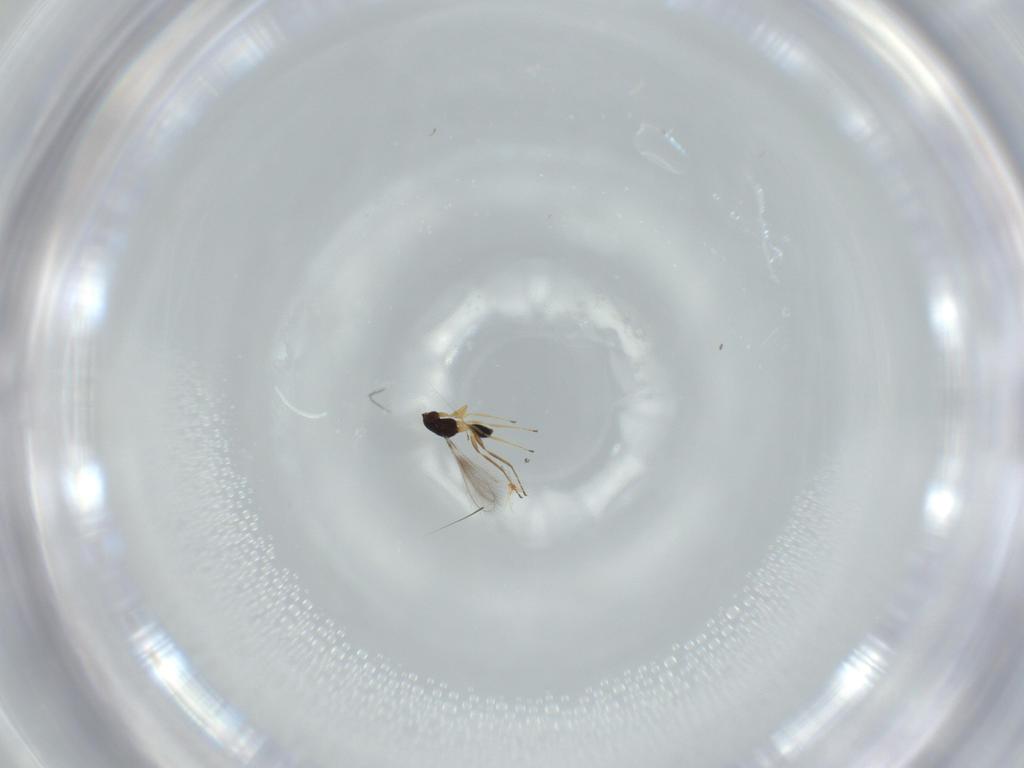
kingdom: Animalia
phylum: Arthropoda
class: Insecta
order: Hymenoptera
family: Mymaridae
